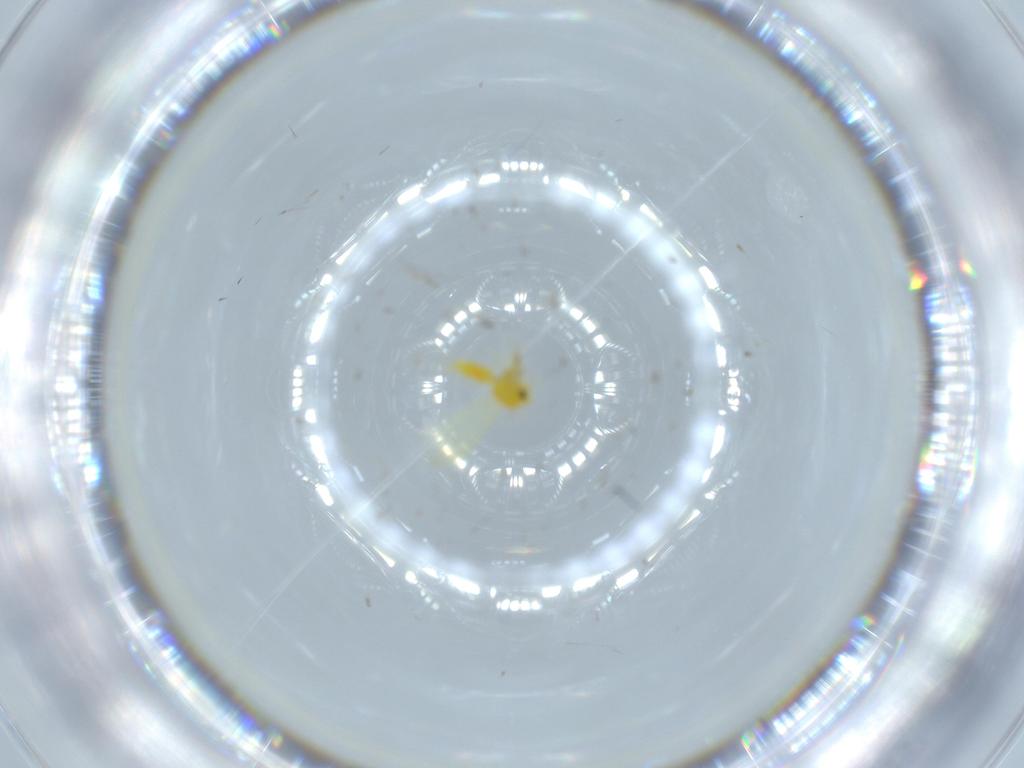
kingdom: Animalia
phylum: Arthropoda
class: Insecta
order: Hemiptera
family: Aleyrodidae
